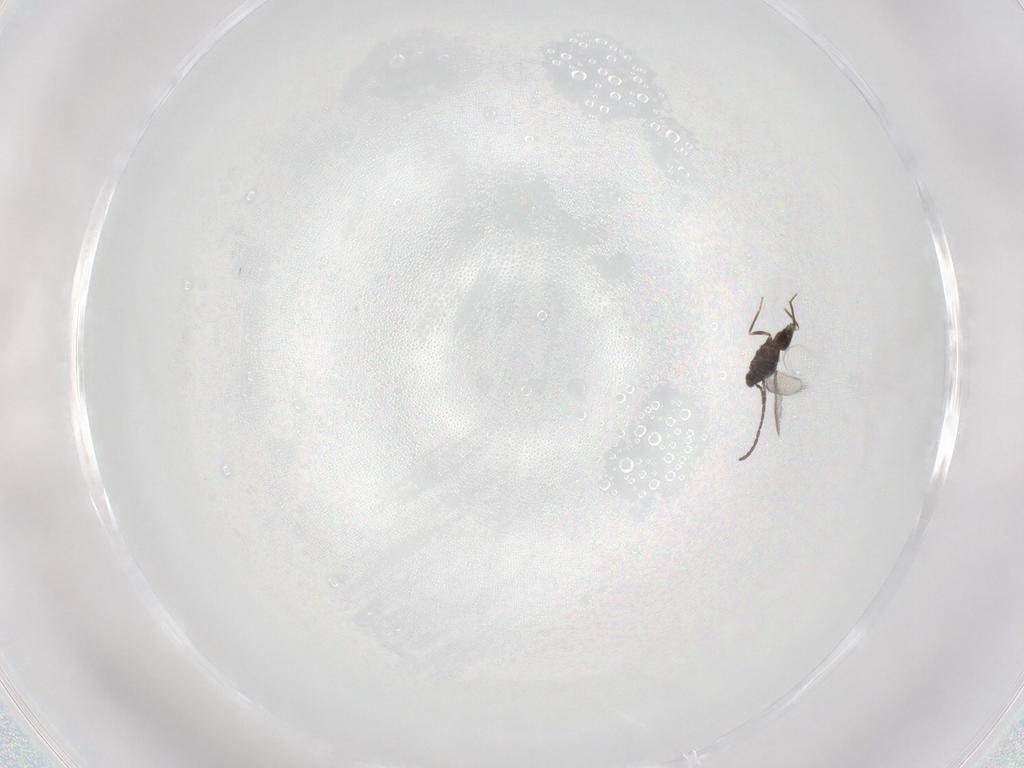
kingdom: Animalia
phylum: Arthropoda
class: Insecta
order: Hymenoptera
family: Mymaridae
